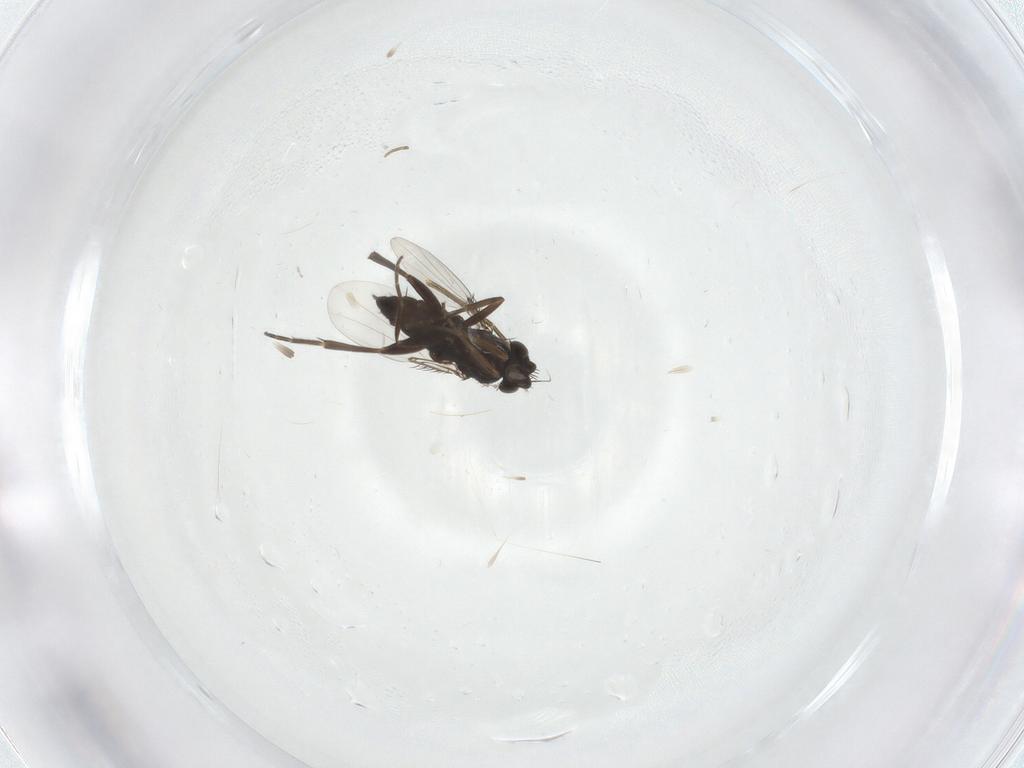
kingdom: Animalia
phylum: Arthropoda
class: Insecta
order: Diptera
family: Phoridae
